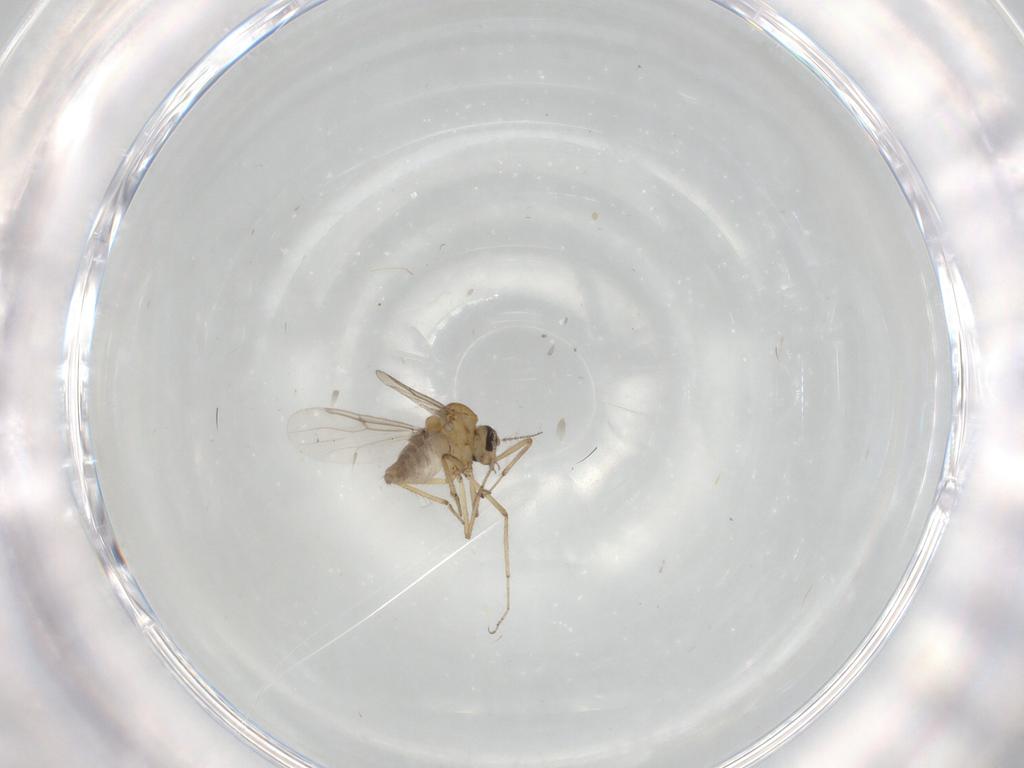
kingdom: Animalia
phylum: Arthropoda
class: Insecta
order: Diptera
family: Ceratopogonidae
